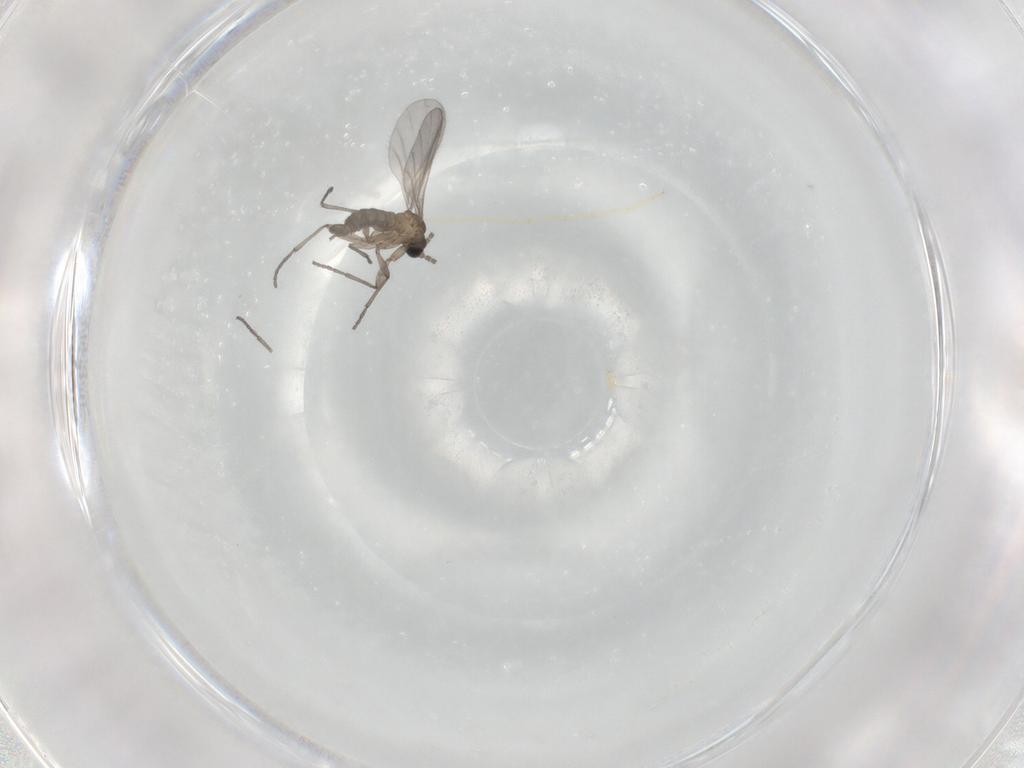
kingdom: Animalia
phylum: Arthropoda
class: Insecta
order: Diptera
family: Sciaridae
